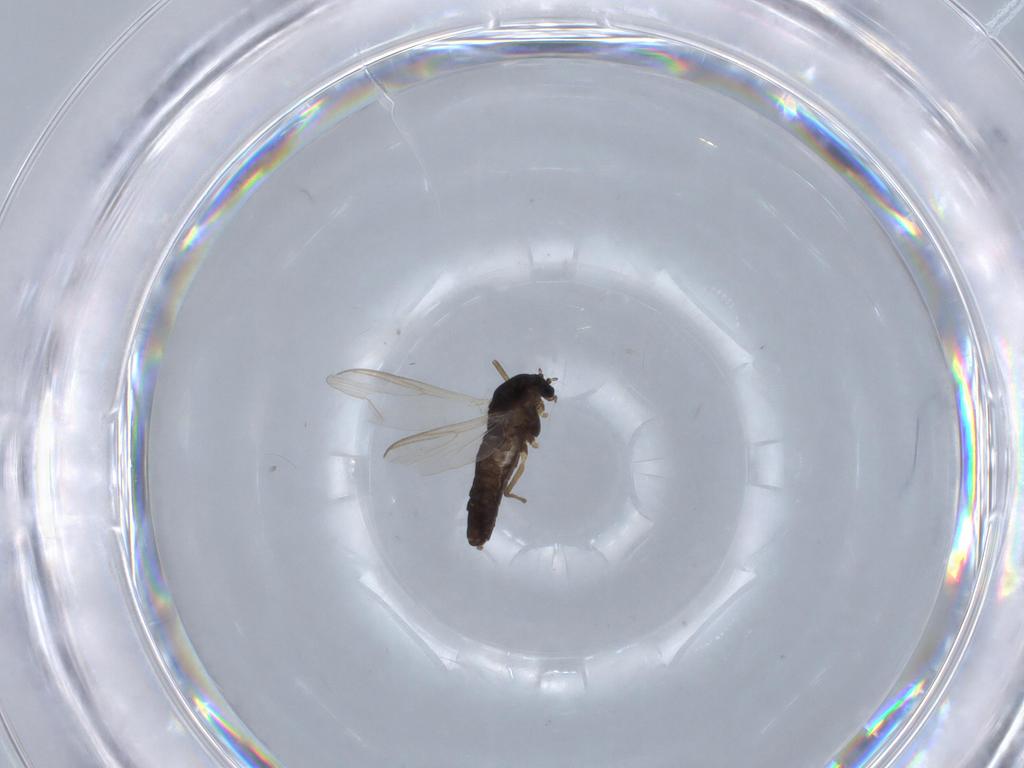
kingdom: Animalia
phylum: Arthropoda
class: Insecta
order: Diptera
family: Chironomidae
